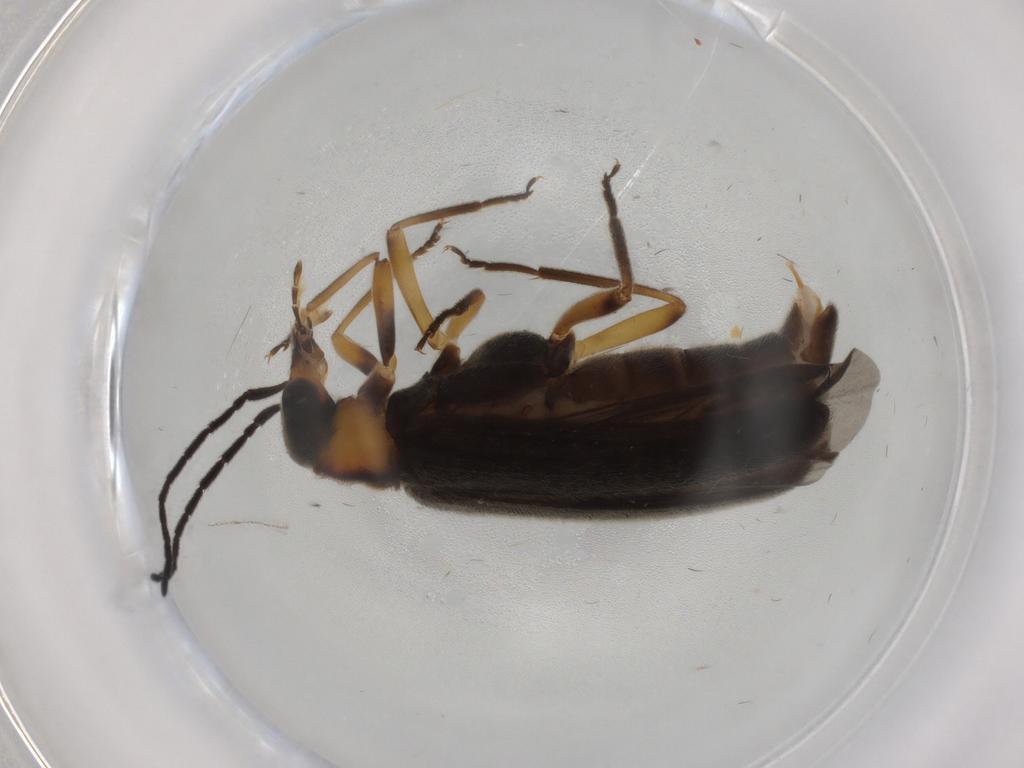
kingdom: Animalia
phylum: Arthropoda
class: Insecta
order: Coleoptera
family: Oedemeridae
